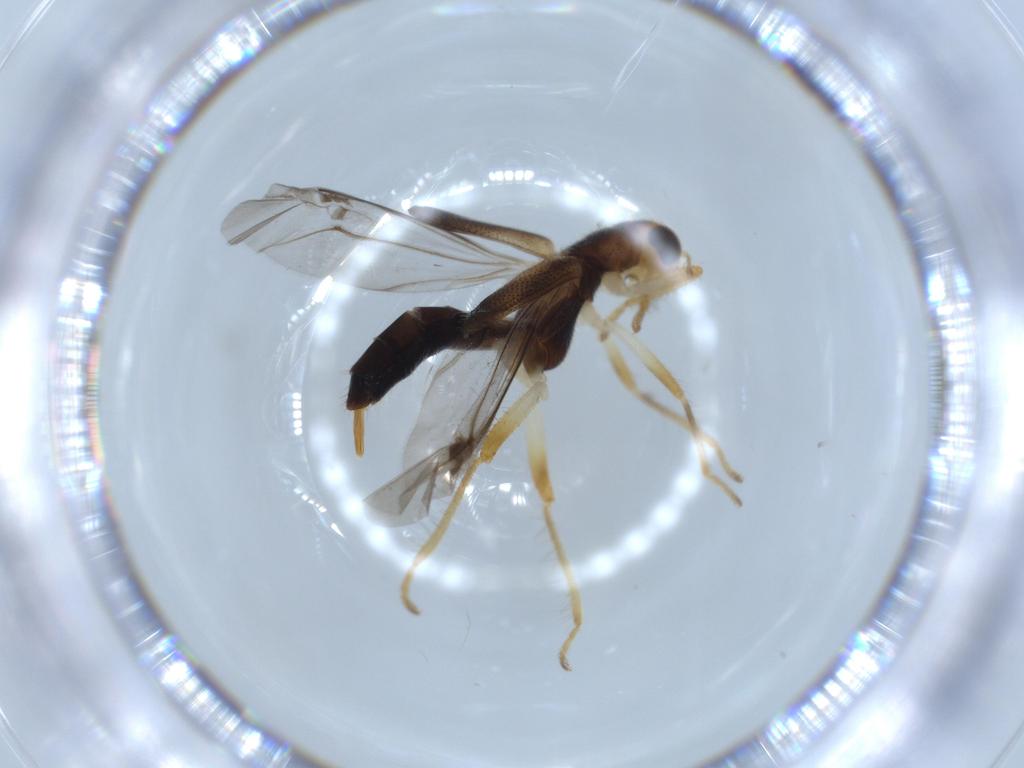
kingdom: Animalia
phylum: Arthropoda
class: Insecta
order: Coleoptera
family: Cleridae
